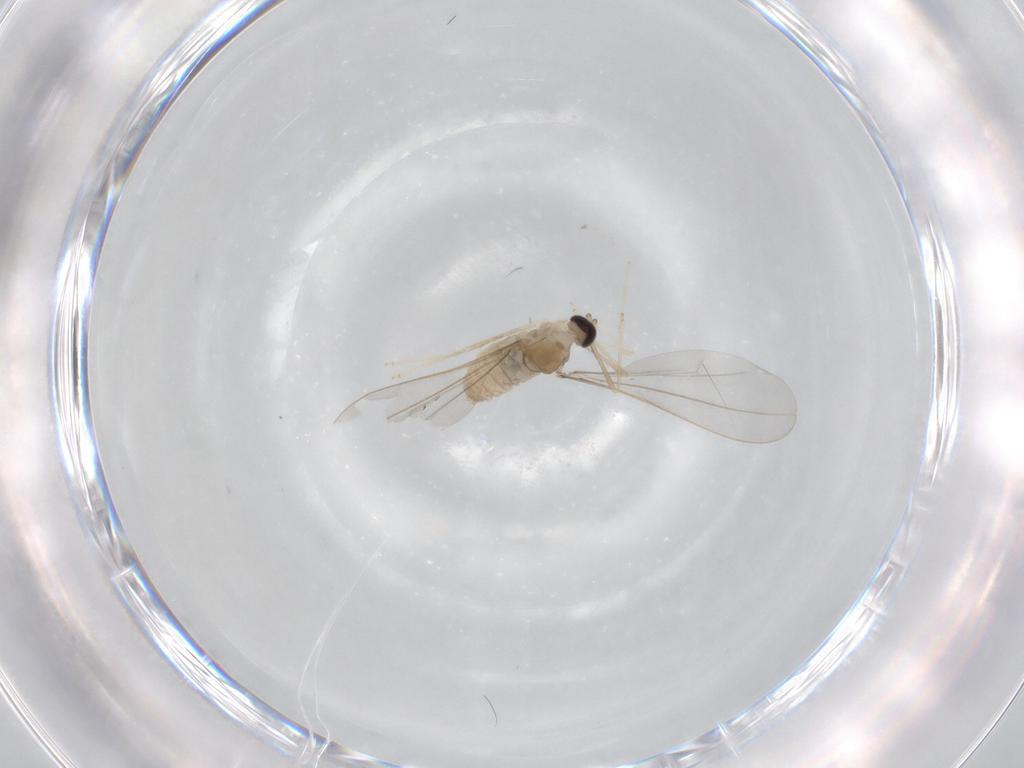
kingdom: Animalia
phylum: Arthropoda
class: Insecta
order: Diptera
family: Cecidomyiidae
